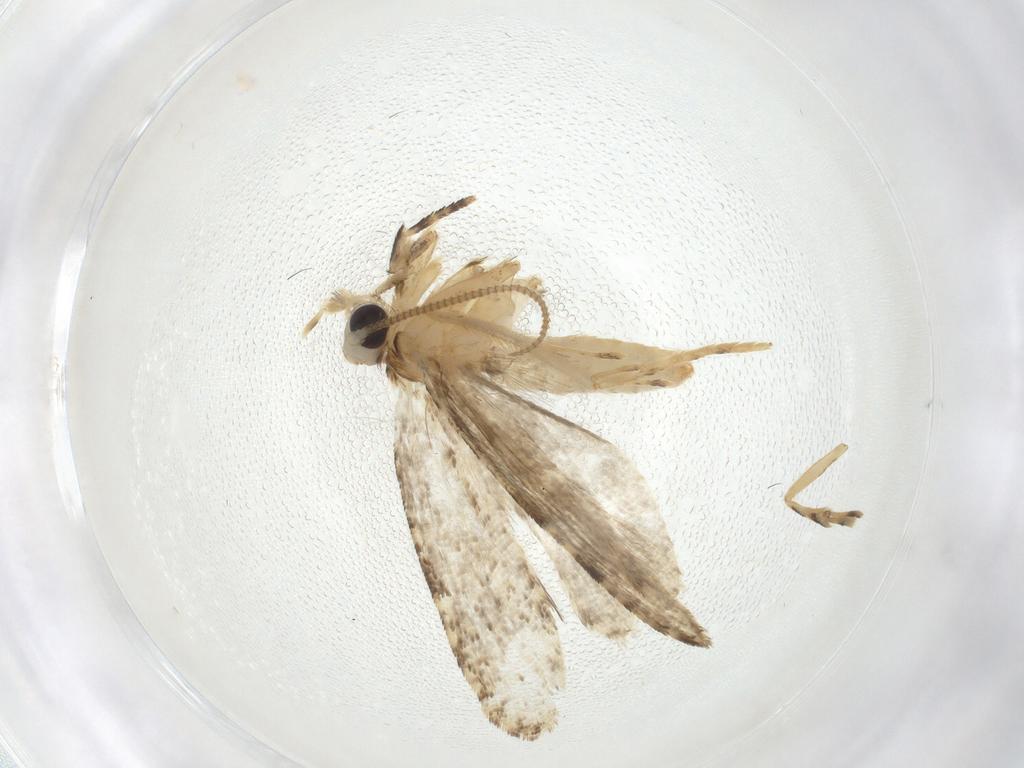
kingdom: Animalia
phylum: Arthropoda
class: Insecta
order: Lepidoptera
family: Tineidae
